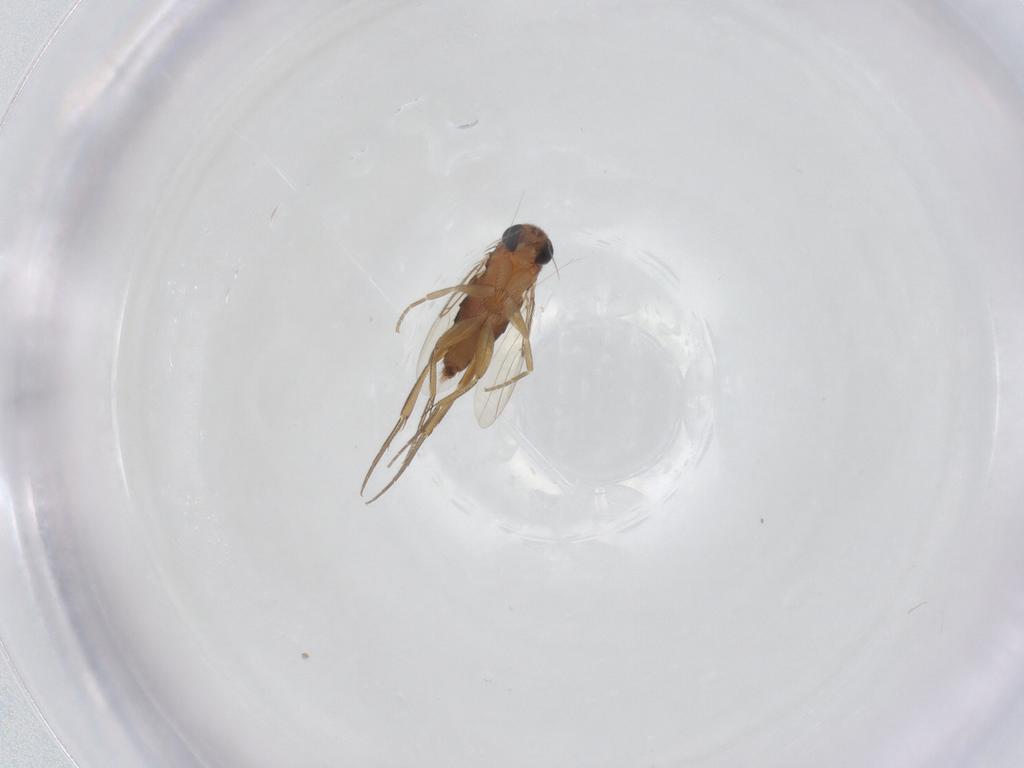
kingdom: Animalia
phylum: Arthropoda
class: Insecta
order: Diptera
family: Phoridae
